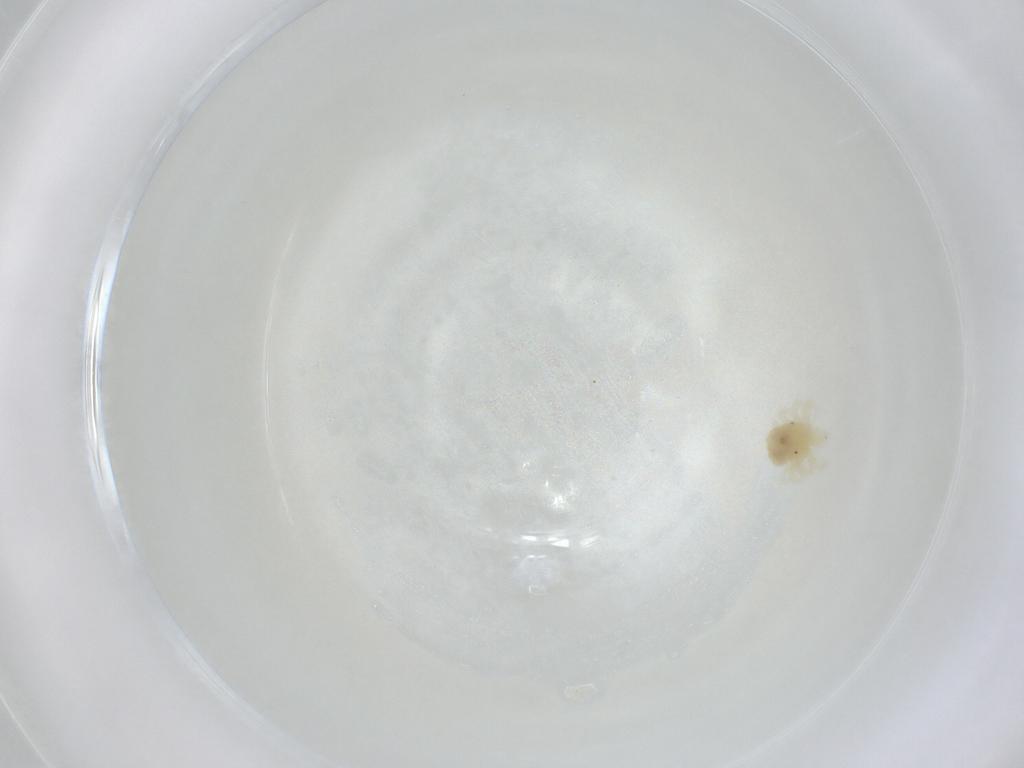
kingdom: Animalia
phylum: Arthropoda
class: Arachnida
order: Trombidiformes
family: Anystidae
